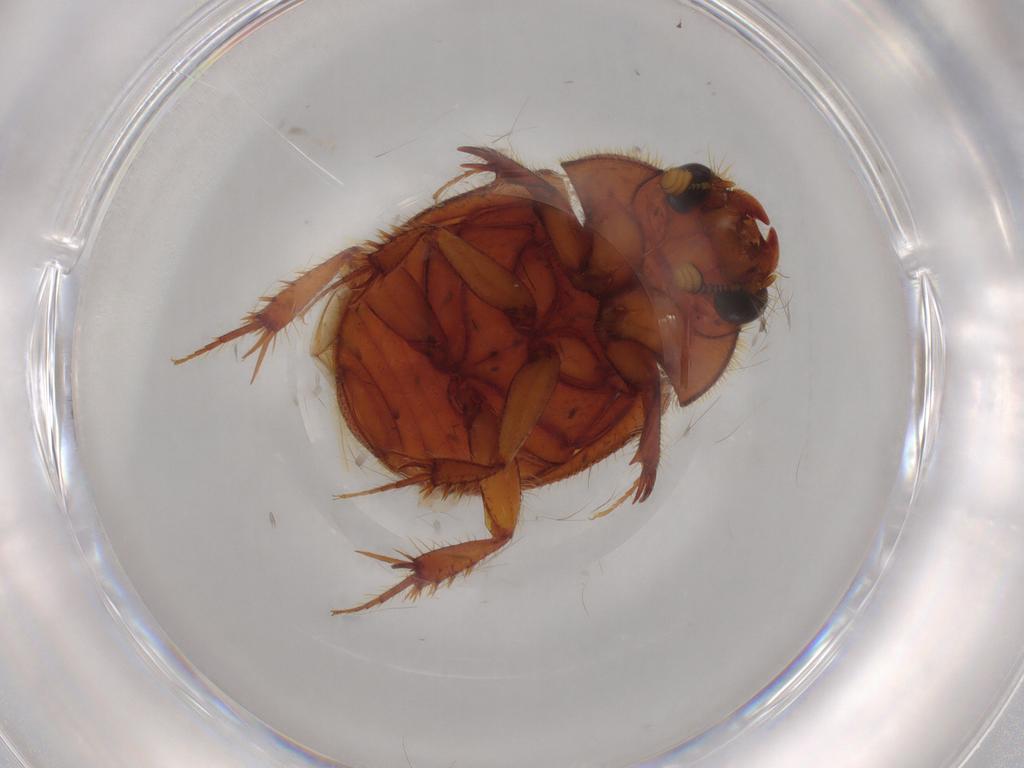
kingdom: Animalia
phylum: Arthropoda
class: Insecta
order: Coleoptera
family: Scarabaeidae
